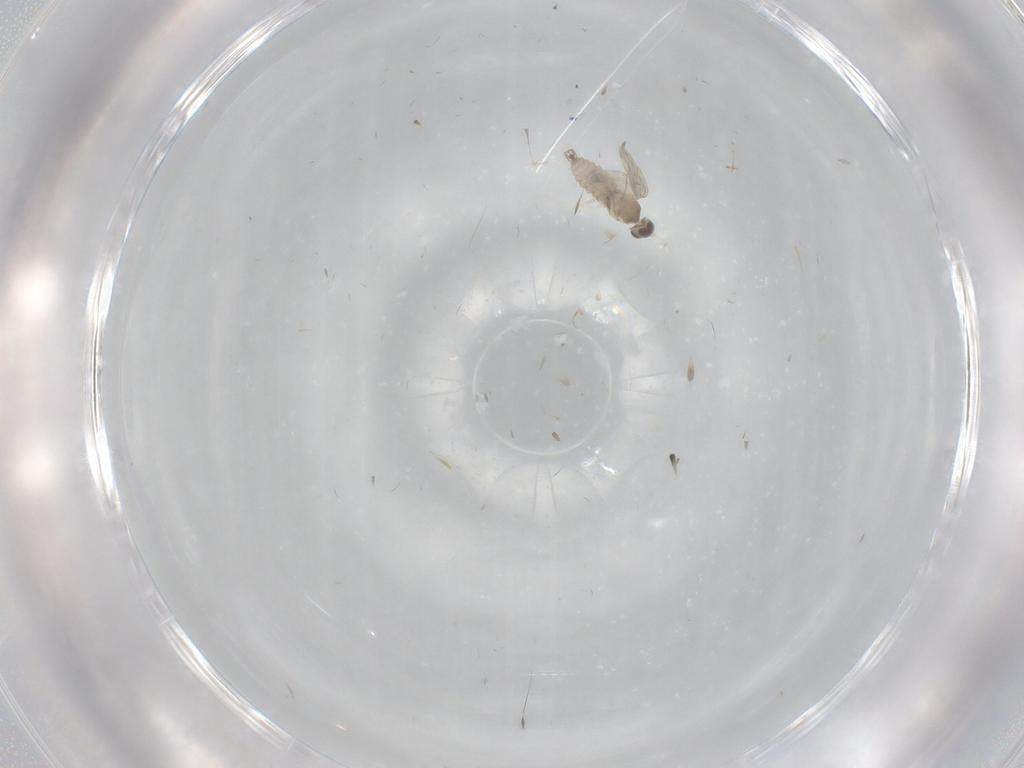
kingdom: Animalia
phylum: Arthropoda
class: Insecta
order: Diptera
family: Cecidomyiidae
